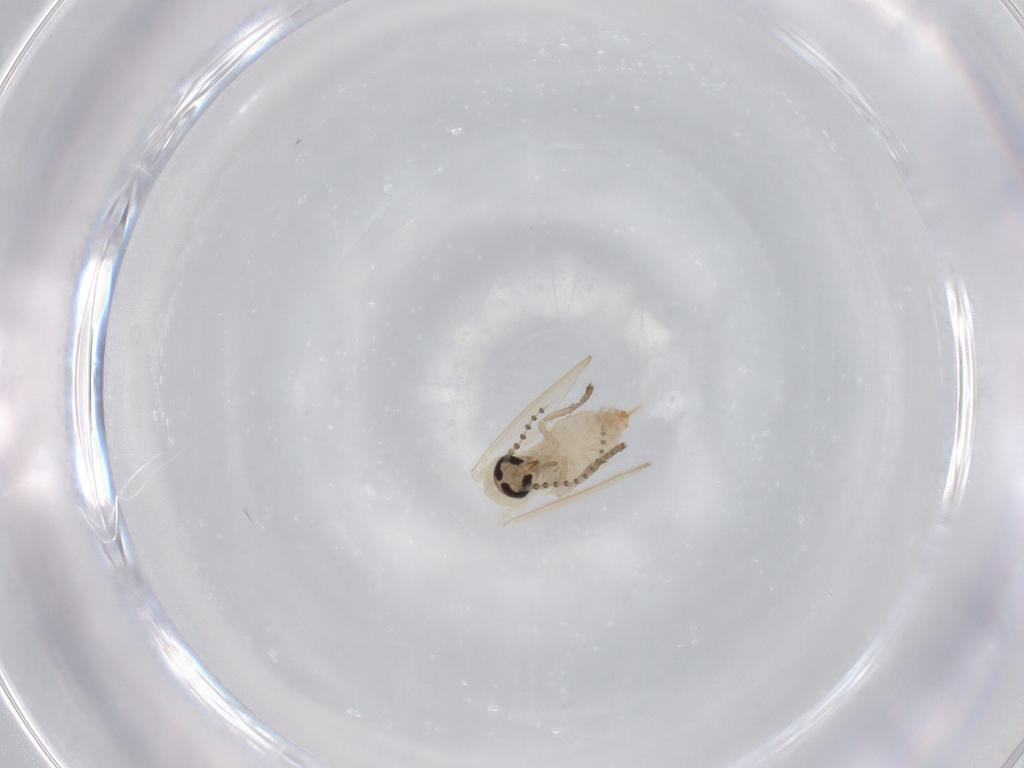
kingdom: Animalia
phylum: Arthropoda
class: Insecta
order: Diptera
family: Psychodidae
